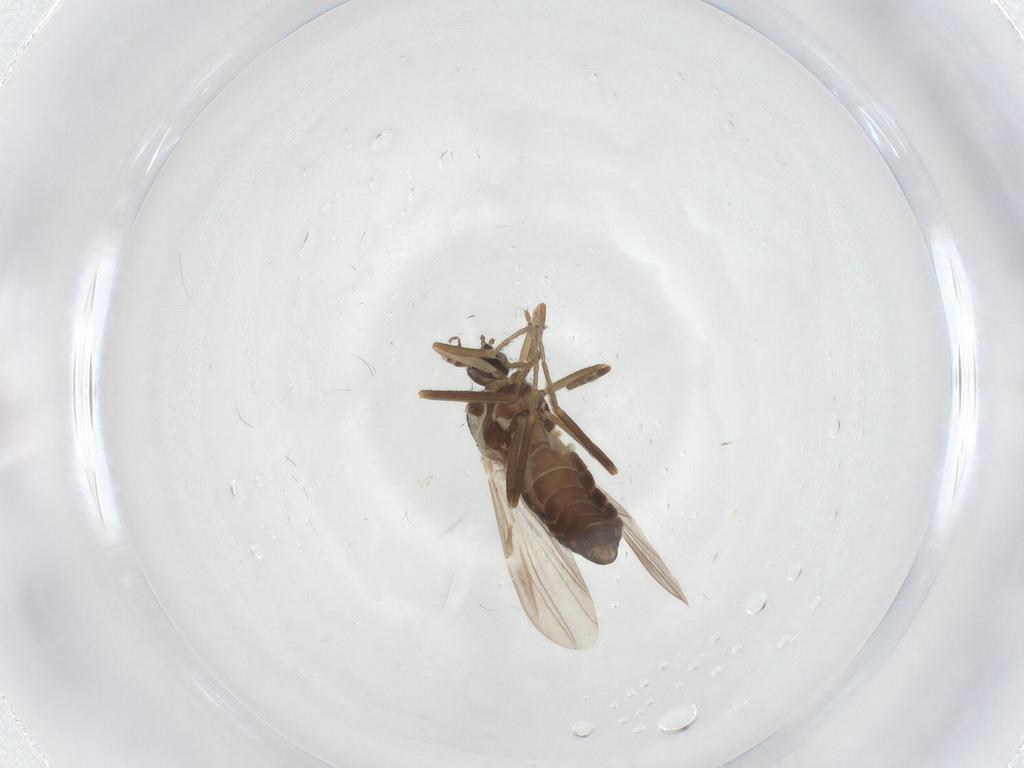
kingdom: Animalia
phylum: Arthropoda
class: Insecta
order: Diptera
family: Ceratopogonidae
